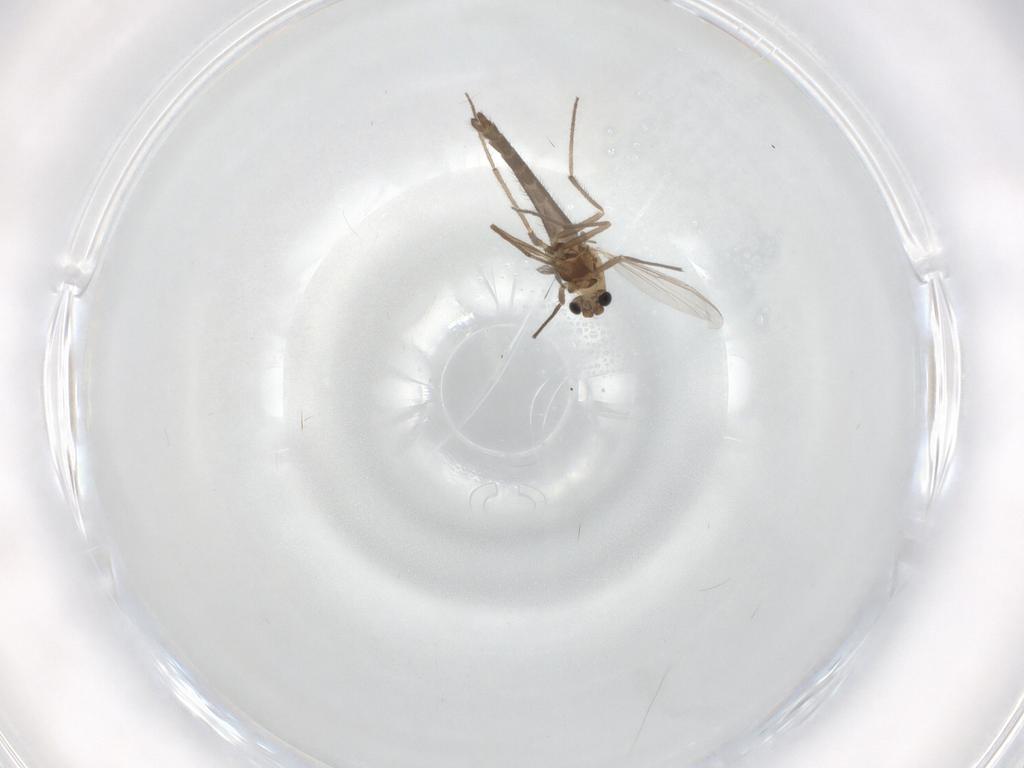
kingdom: Animalia
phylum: Arthropoda
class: Insecta
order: Diptera
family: Chironomidae
